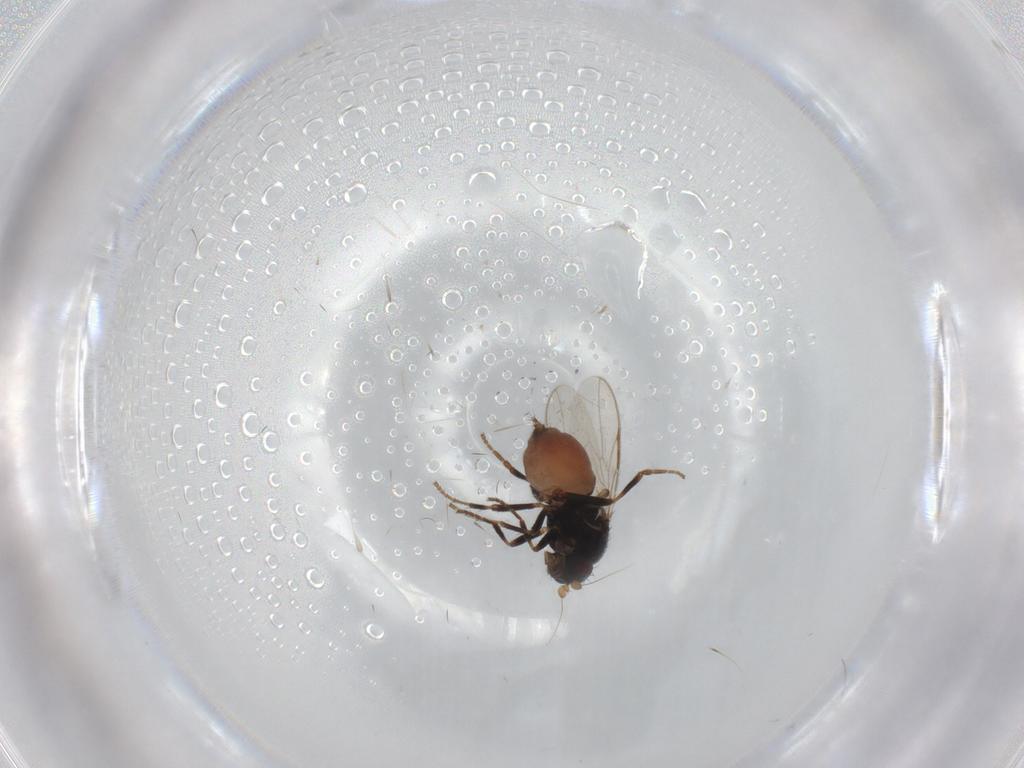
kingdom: Animalia
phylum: Arthropoda
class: Insecta
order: Diptera
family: Sphaeroceridae
